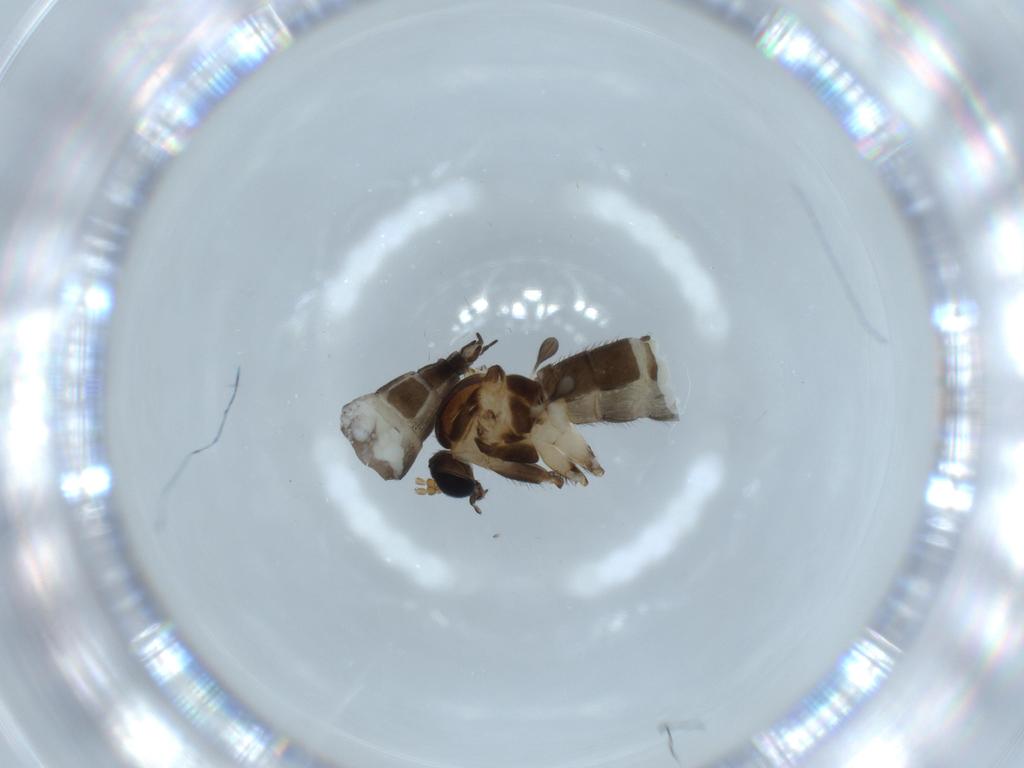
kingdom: Animalia
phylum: Arthropoda
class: Insecta
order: Diptera
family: Sciaridae
